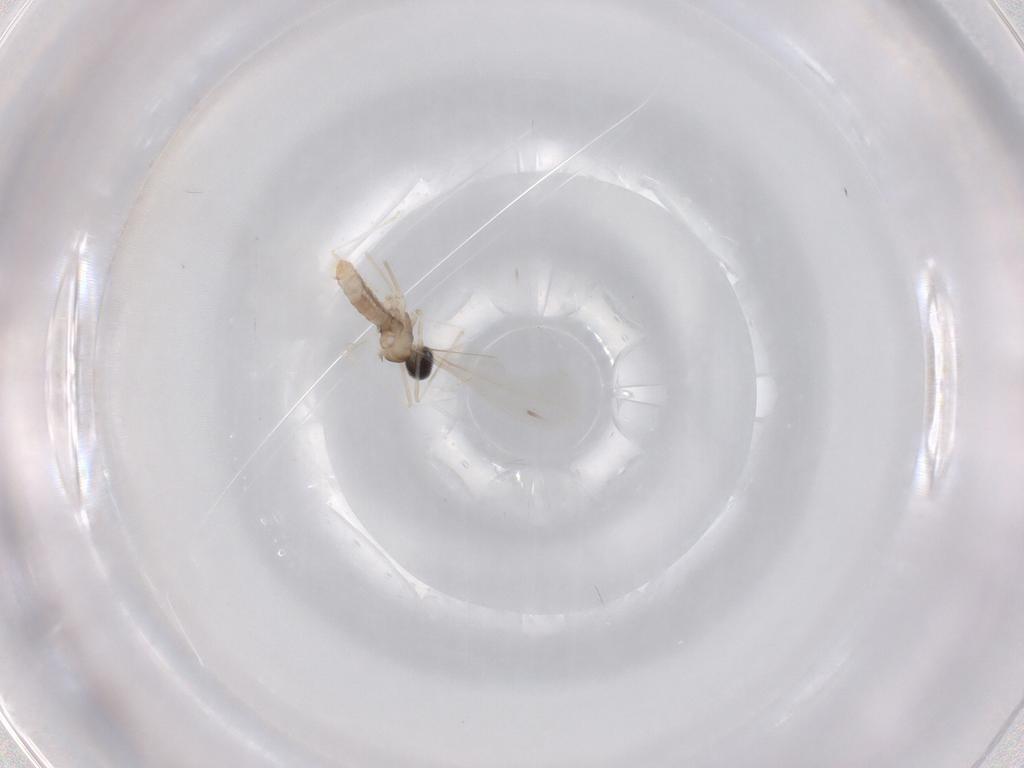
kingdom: Animalia
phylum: Arthropoda
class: Insecta
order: Diptera
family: Cecidomyiidae
